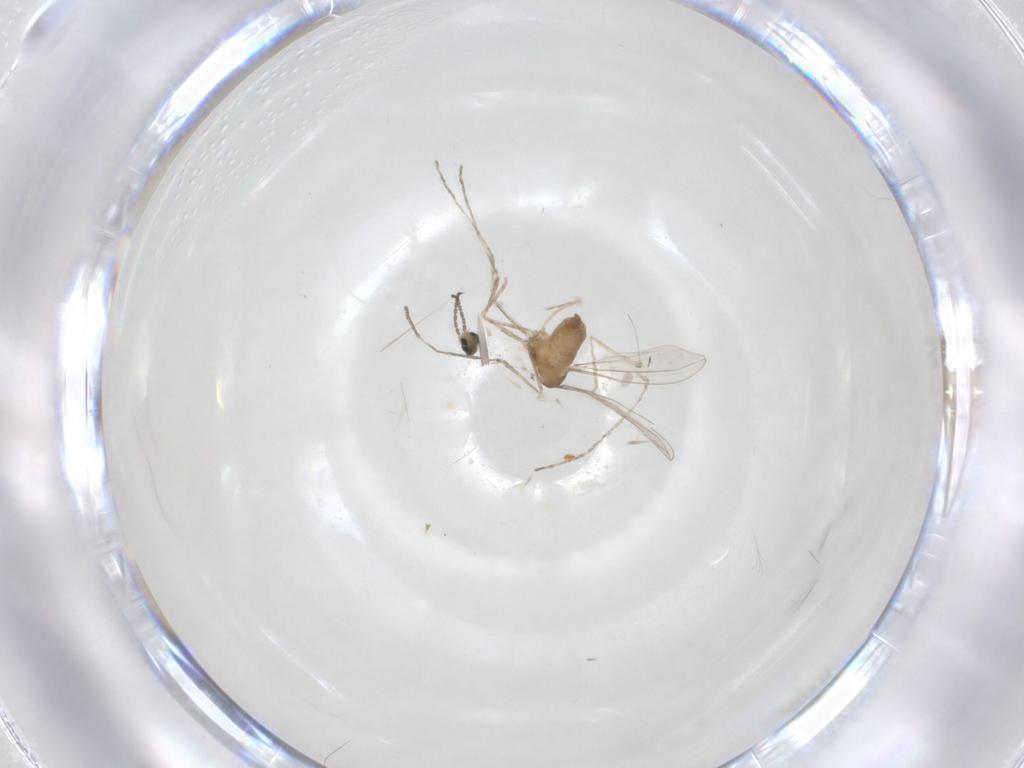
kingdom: Animalia
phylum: Arthropoda
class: Insecta
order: Diptera
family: Cecidomyiidae
